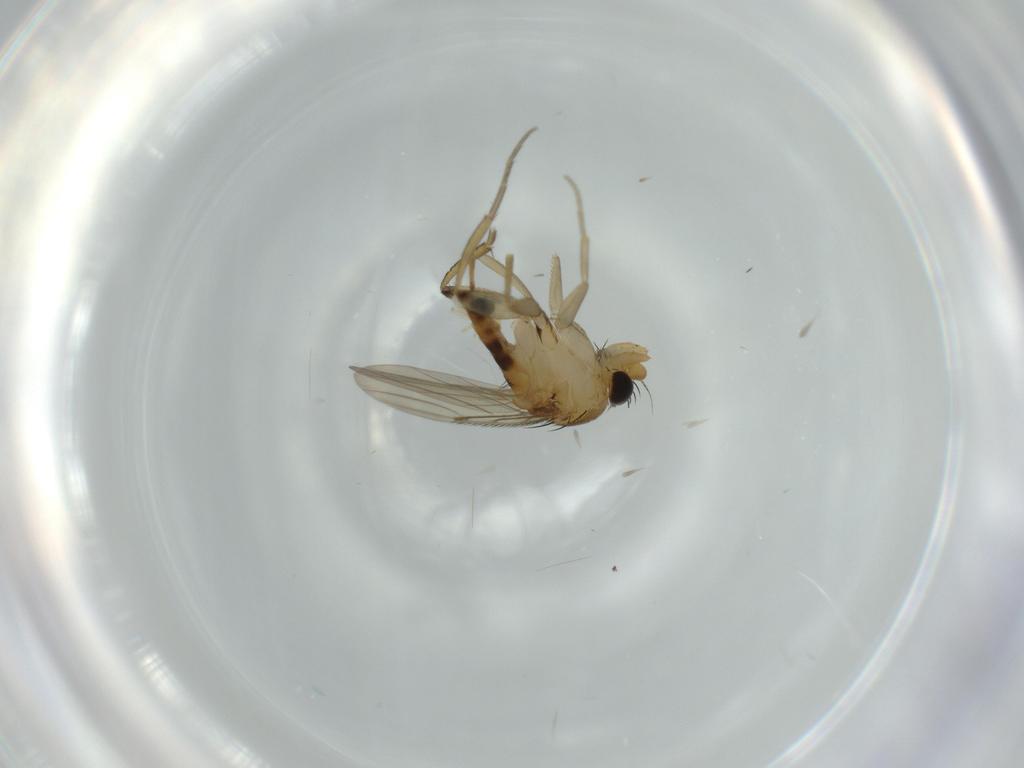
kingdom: Animalia
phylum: Arthropoda
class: Insecta
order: Diptera
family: Phoridae
